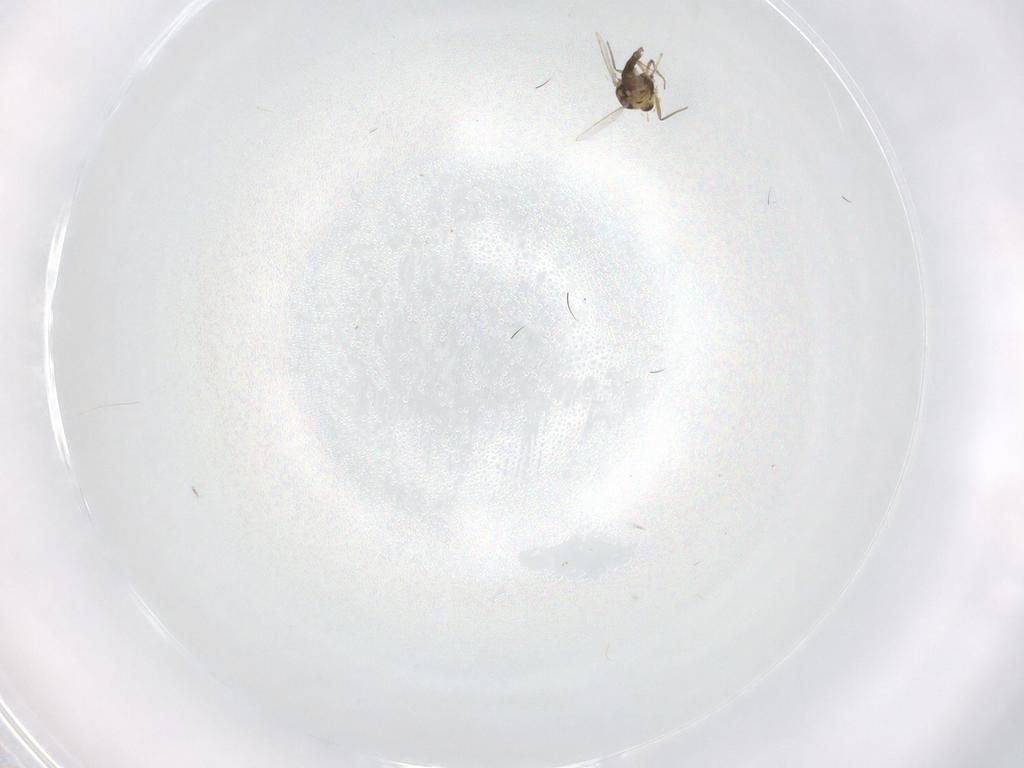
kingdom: Animalia
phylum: Arthropoda
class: Insecta
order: Diptera
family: Chironomidae
